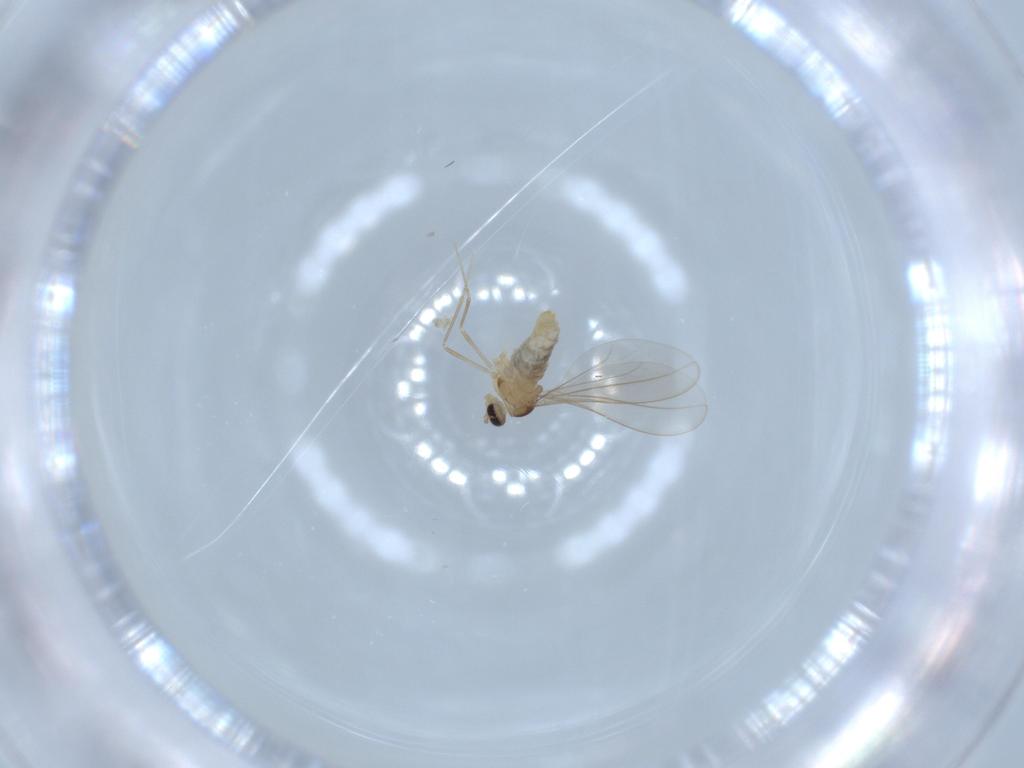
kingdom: Animalia
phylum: Arthropoda
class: Insecta
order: Diptera
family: Cecidomyiidae
